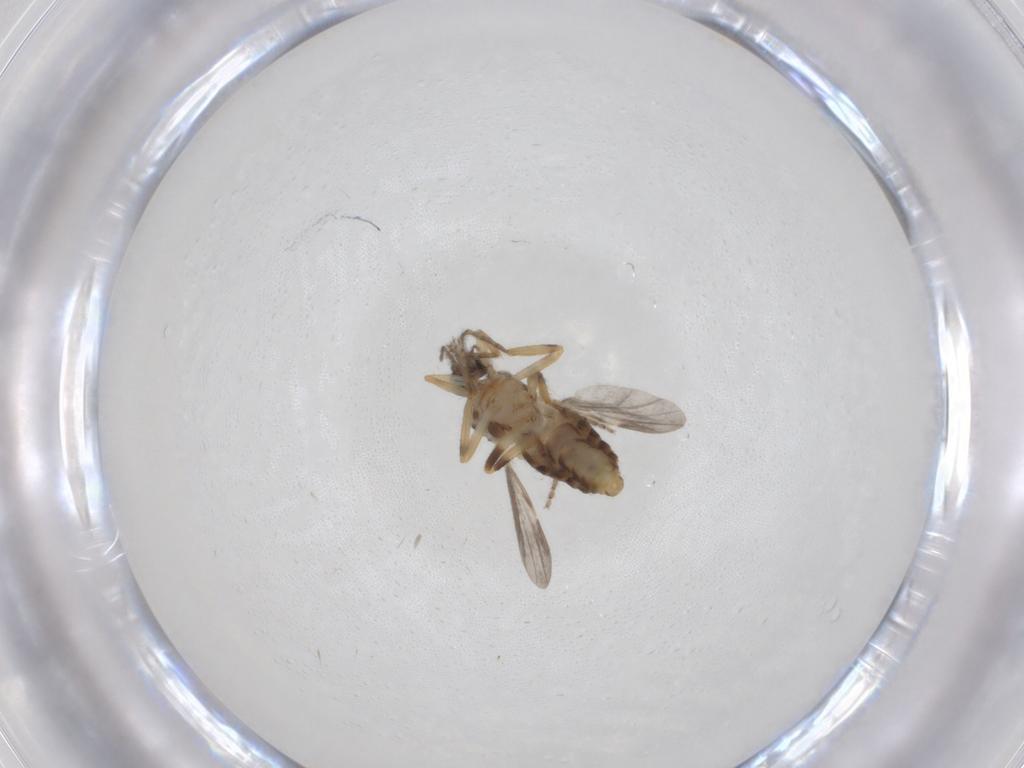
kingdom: Animalia
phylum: Arthropoda
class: Insecta
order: Diptera
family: Ceratopogonidae
